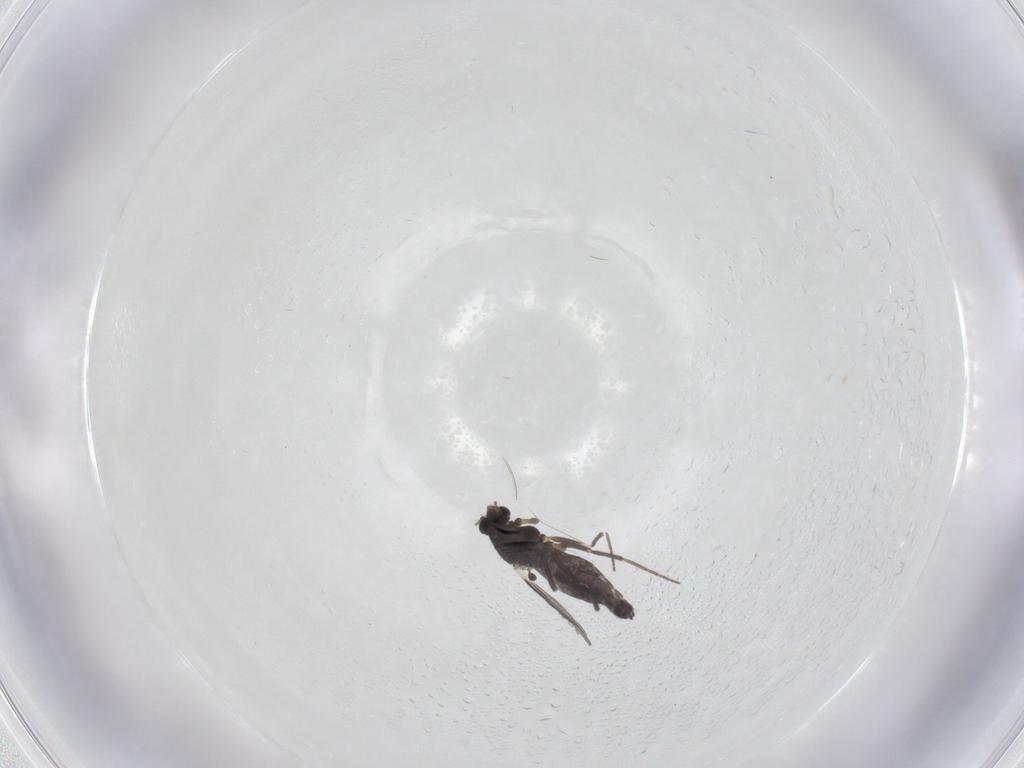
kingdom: Animalia
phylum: Arthropoda
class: Insecta
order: Diptera
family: Chironomidae
